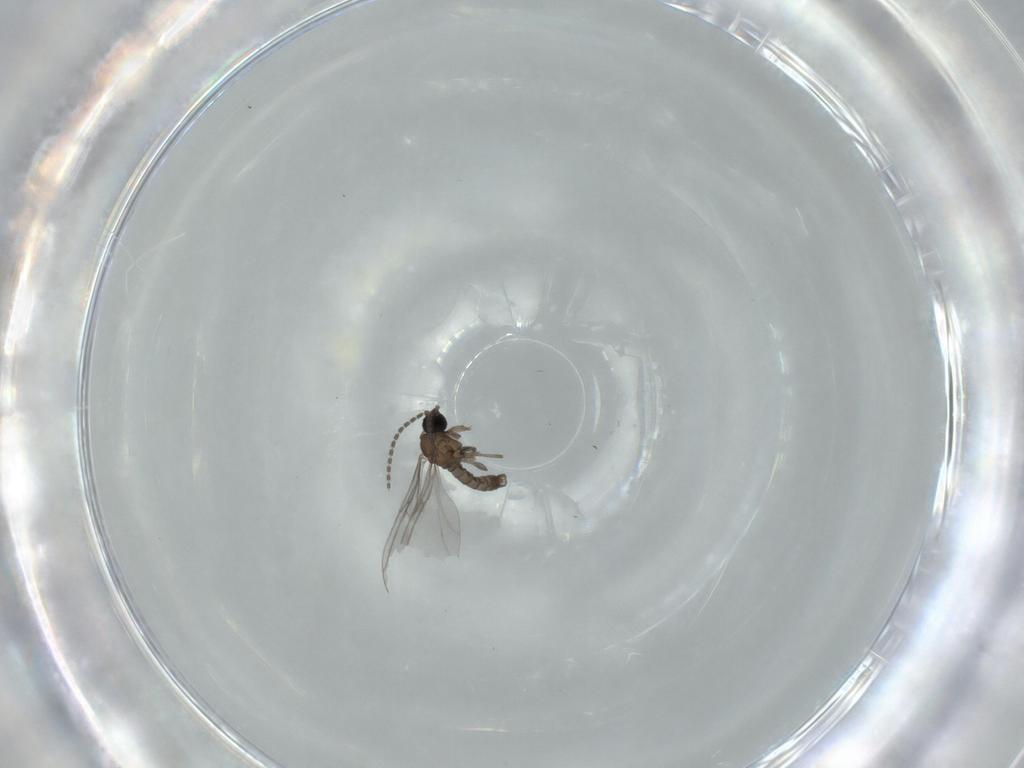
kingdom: Animalia
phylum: Arthropoda
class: Insecta
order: Diptera
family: Sciaridae
